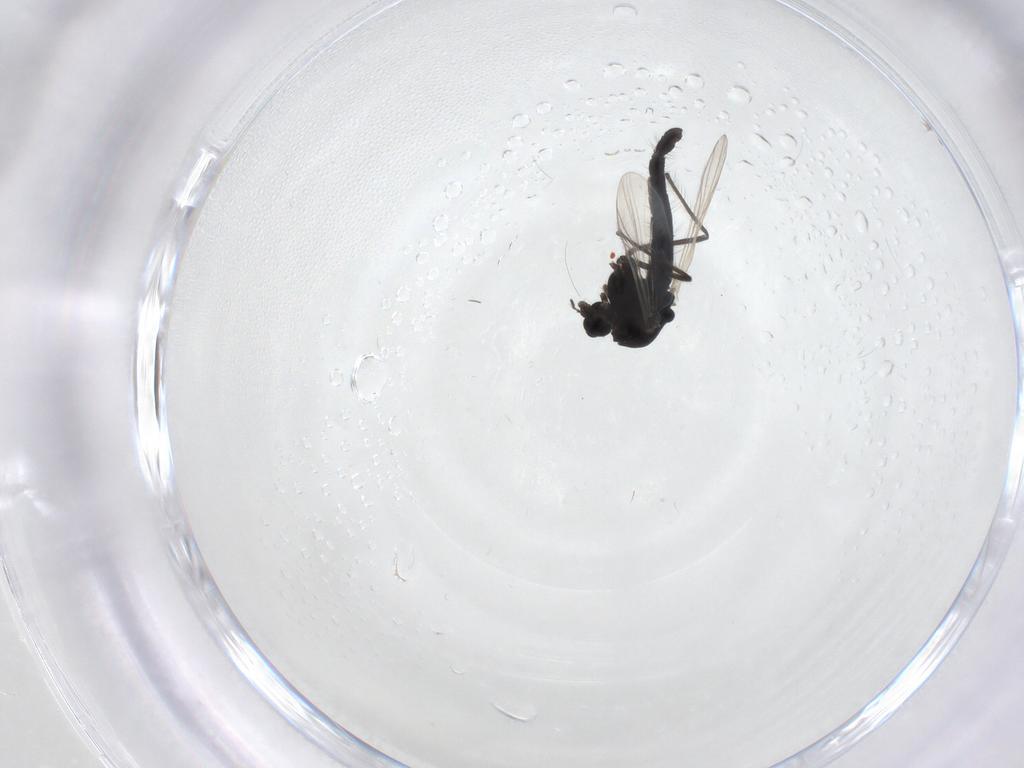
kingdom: Animalia
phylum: Arthropoda
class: Insecta
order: Diptera
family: Chironomidae
